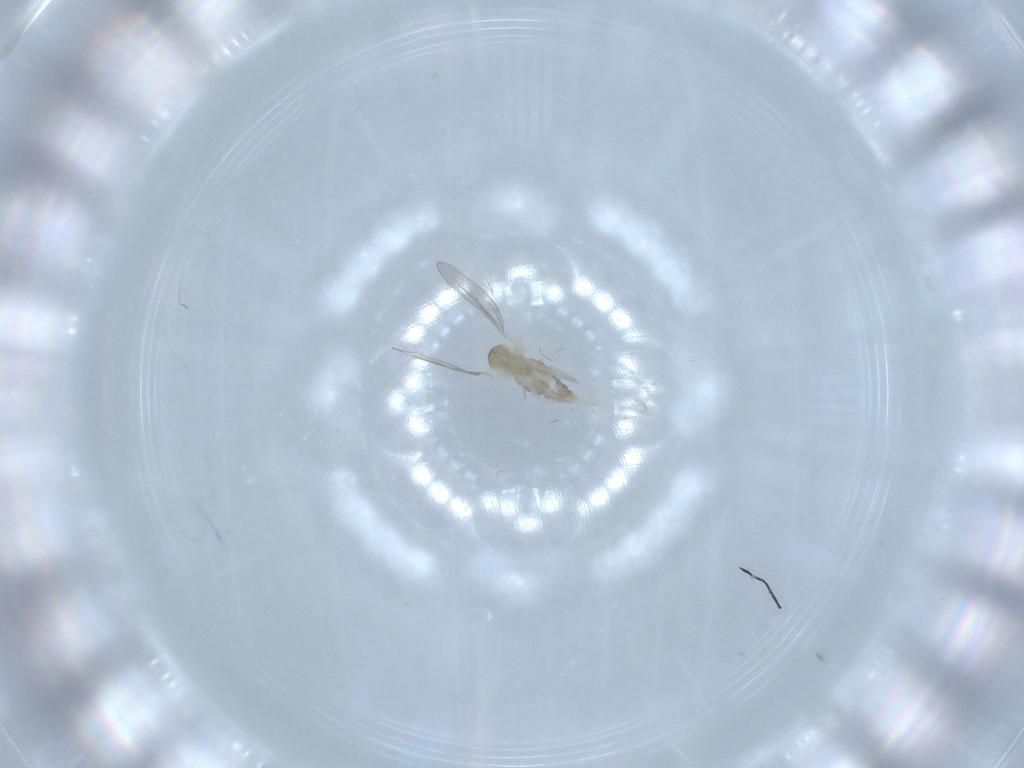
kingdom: Animalia
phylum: Arthropoda
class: Insecta
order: Diptera
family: Cecidomyiidae
